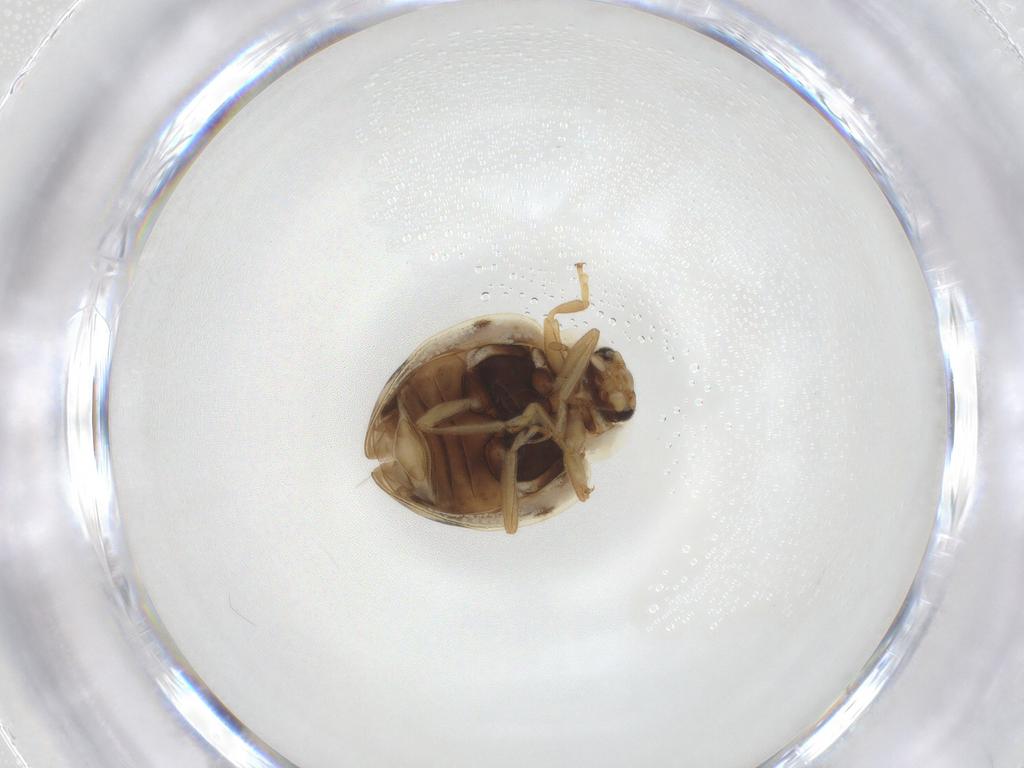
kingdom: Animalia
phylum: Arthropoda
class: Insecta
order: Coleoptera
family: Coccinellidae
